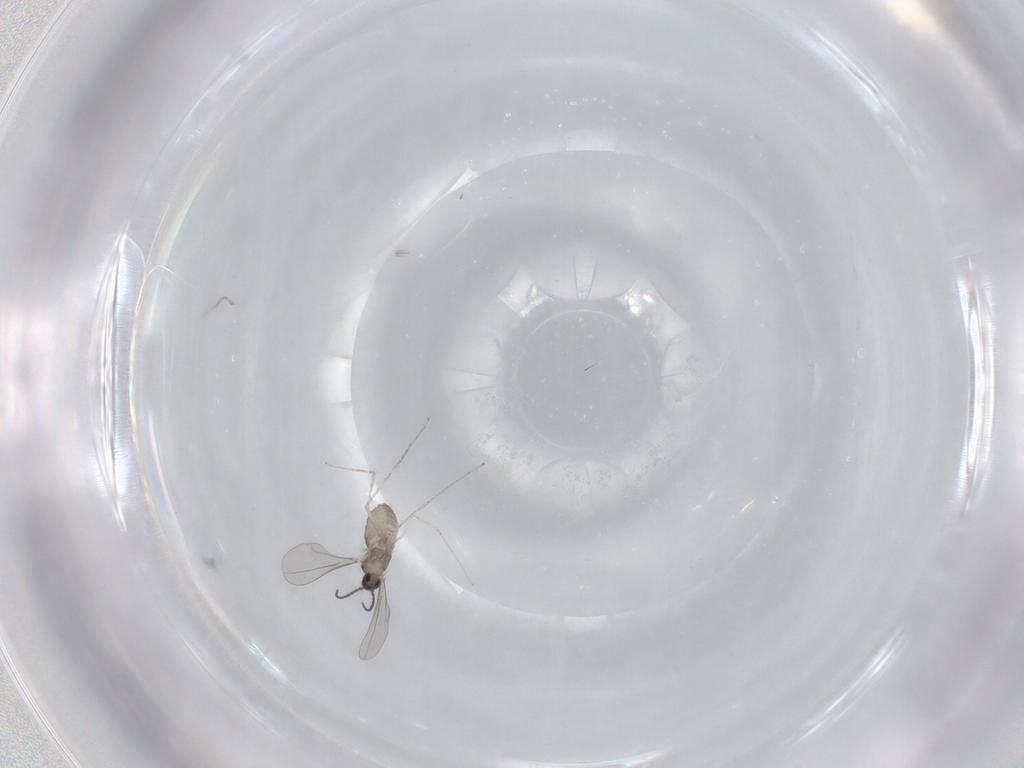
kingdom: Animalia
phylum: Arthropoda
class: Insecta
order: Diptera
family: Cecidomyiidae
